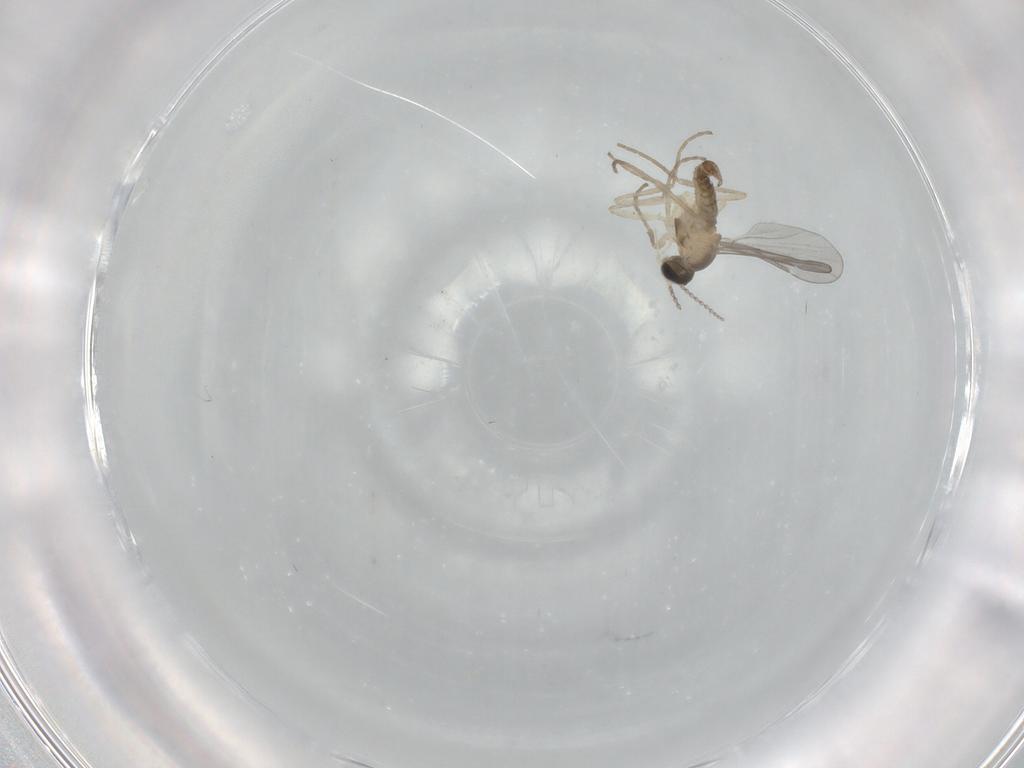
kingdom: Animalia
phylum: Arthropoda
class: Insecta
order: Diptera
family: Cecidomyiidae
